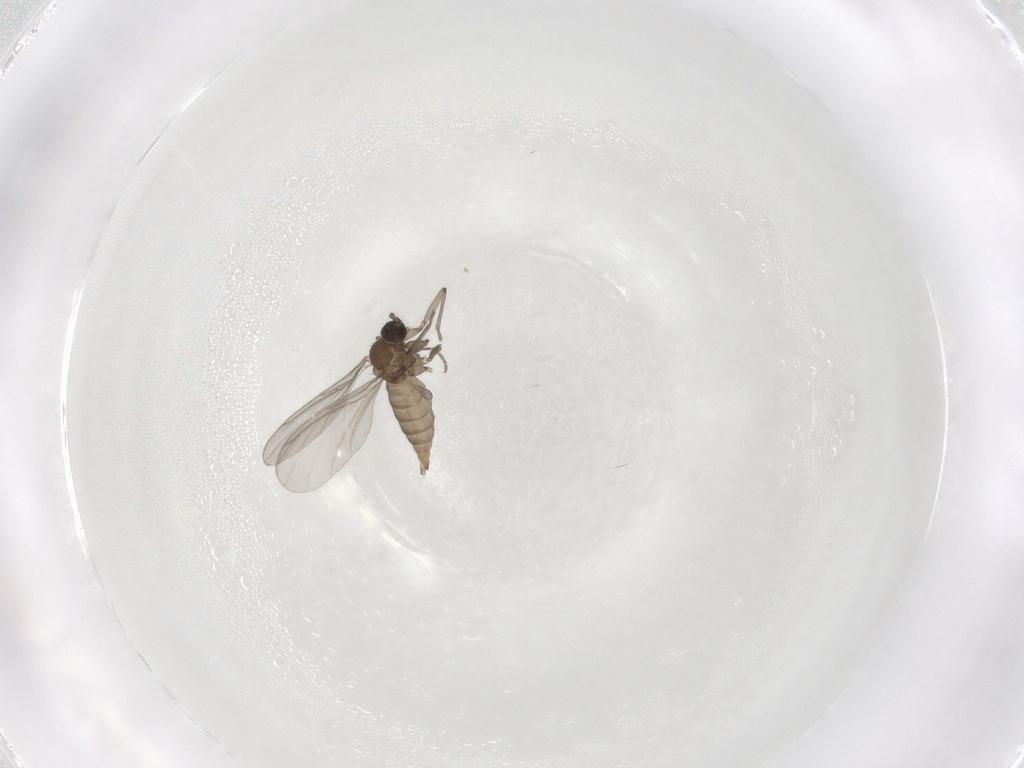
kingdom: Animalia
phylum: Arthropoda
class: Insecta
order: Diptera
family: Sciaridae
